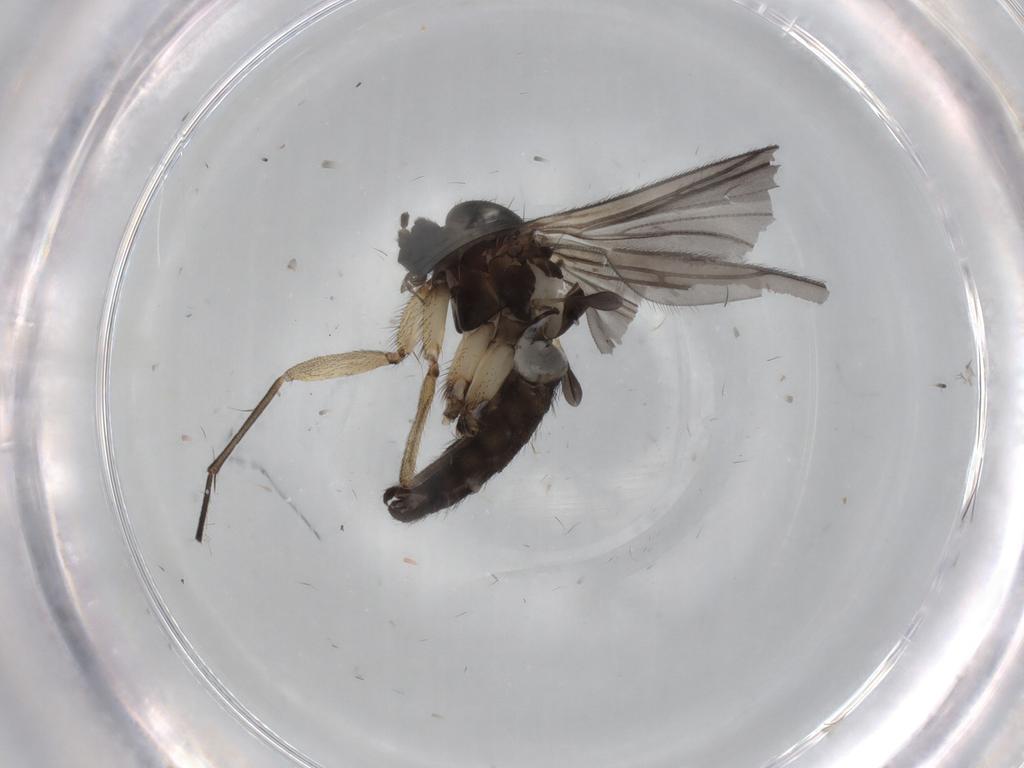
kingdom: Animalia
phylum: Arthropoda
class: Insecta
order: Diptera
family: Sciaridae
